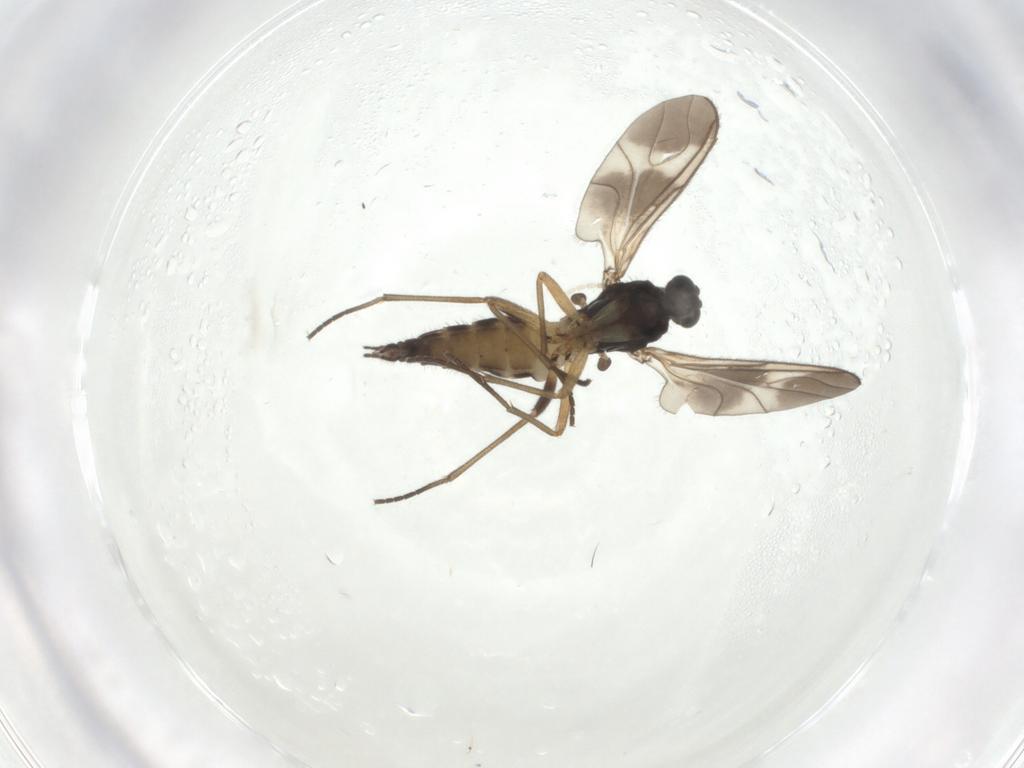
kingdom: Animalia
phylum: Arthropoda
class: Insecta
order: Diptera
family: Sciaridae
